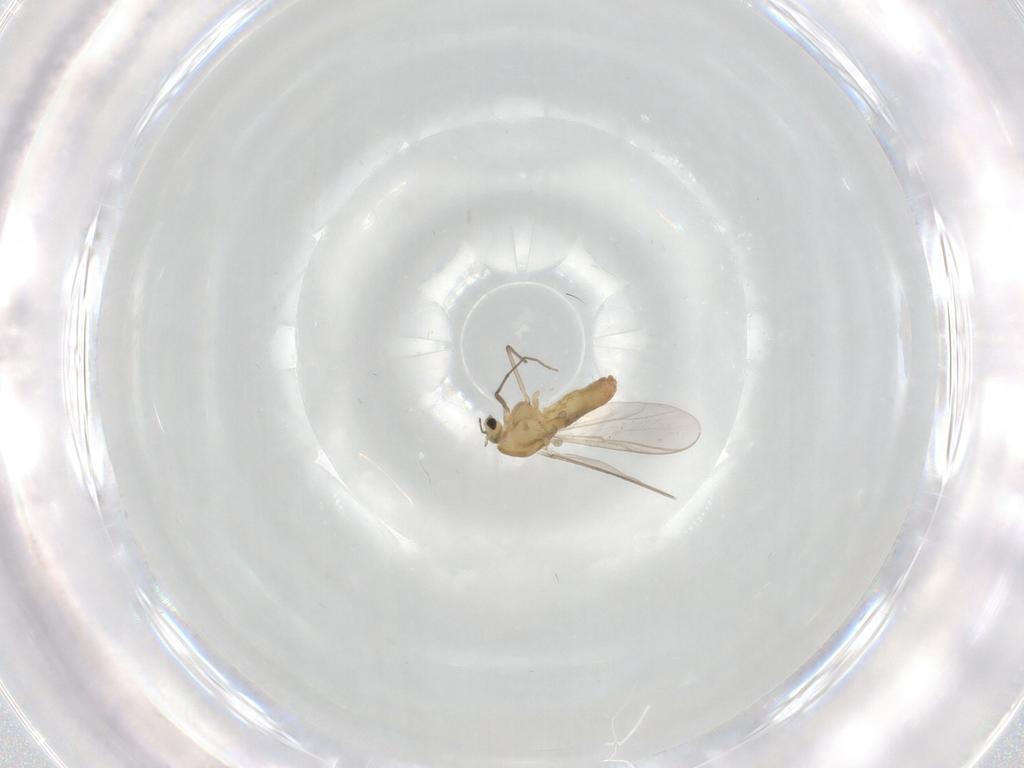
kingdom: Animalia
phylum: Arthropoda
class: Insecta
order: Diptera
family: Chironomidae
